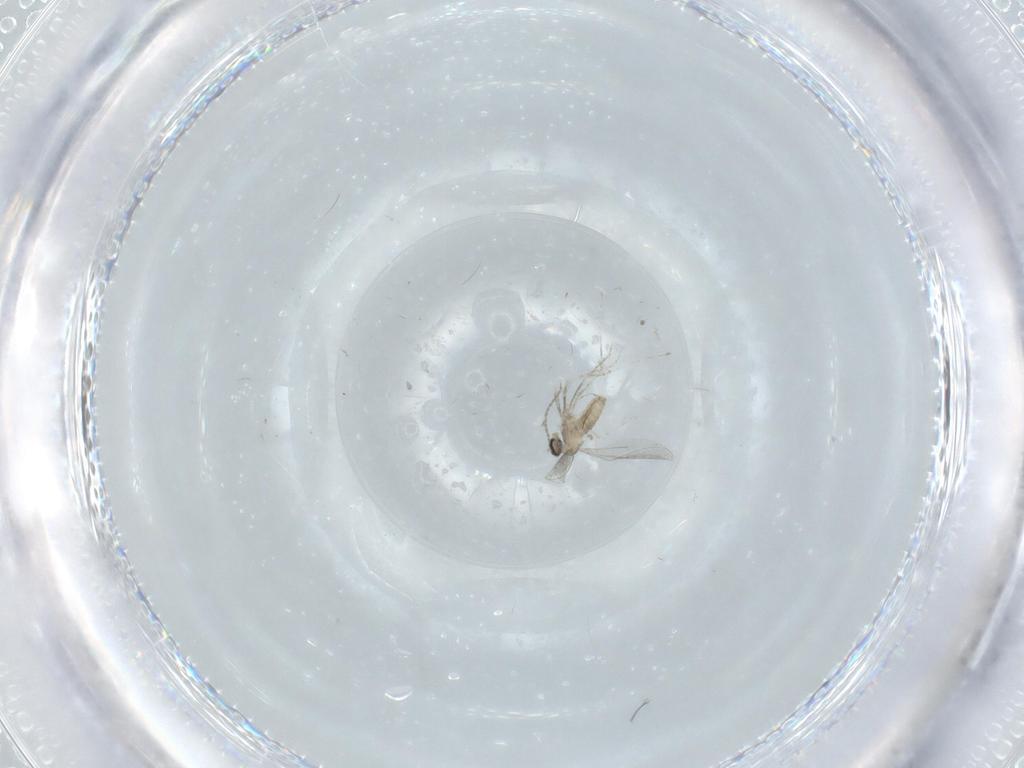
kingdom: Animalia
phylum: Arthropoda
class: Insecta
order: Diptera
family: Cecidomyiidae
